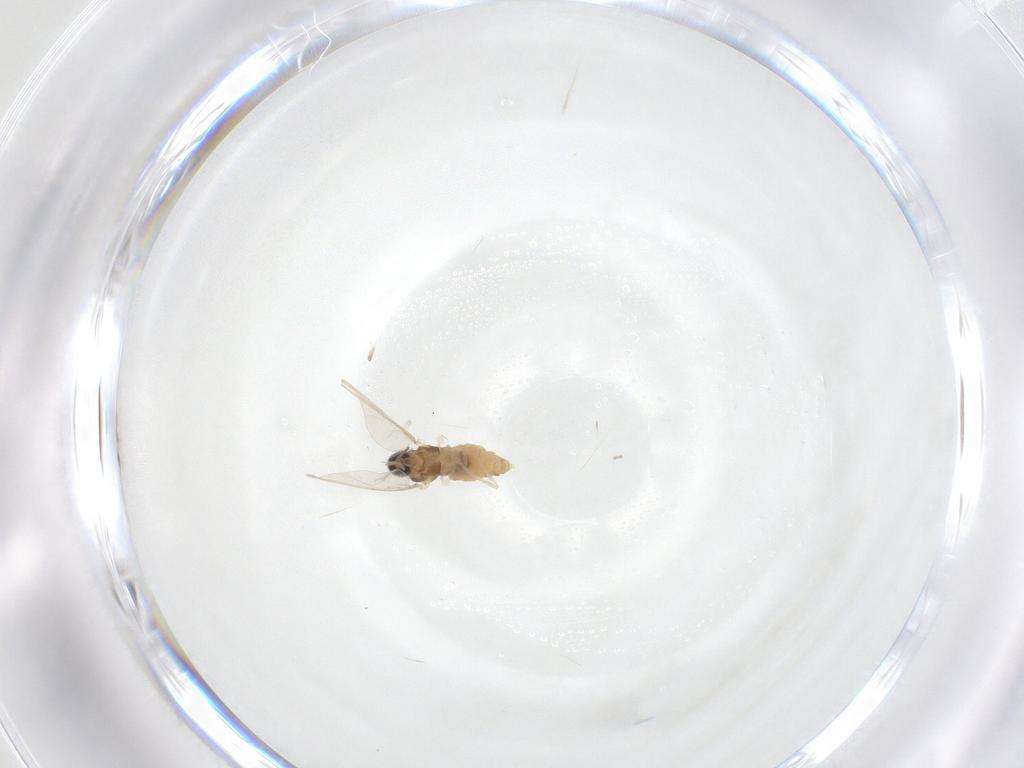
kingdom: Animalia
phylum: Arthropoda
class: Insecta
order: Diptera
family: Cecidomyiidae
